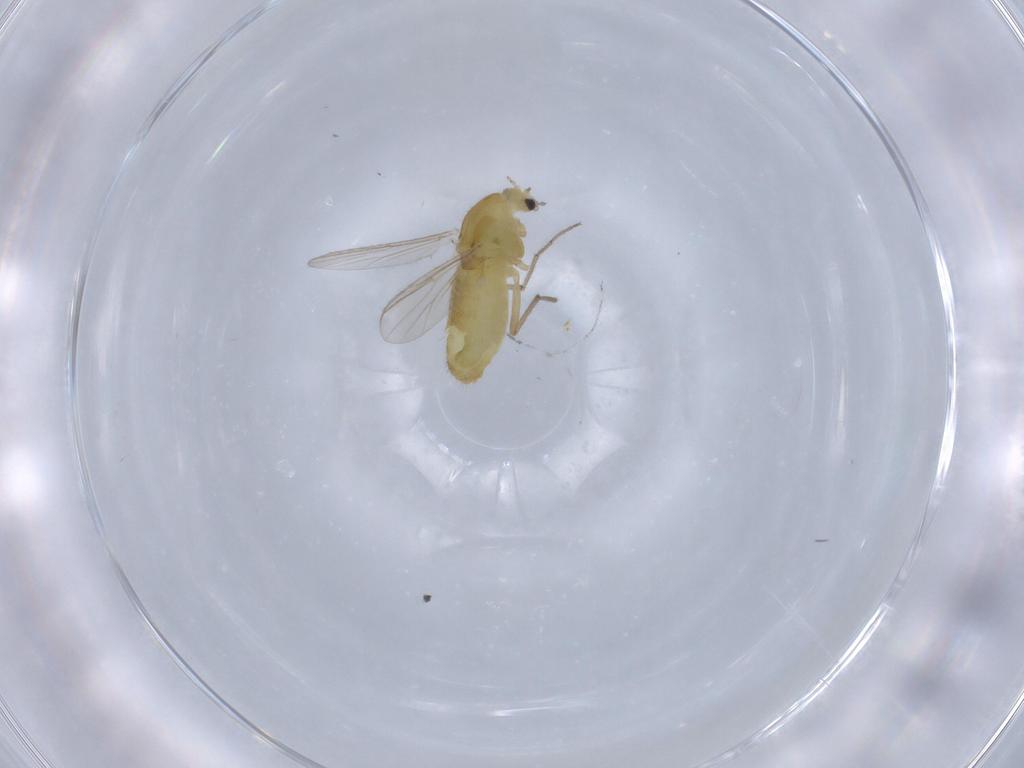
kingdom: Animalia
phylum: Arthropoda
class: Insecta
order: Diptera
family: Chironomidae
